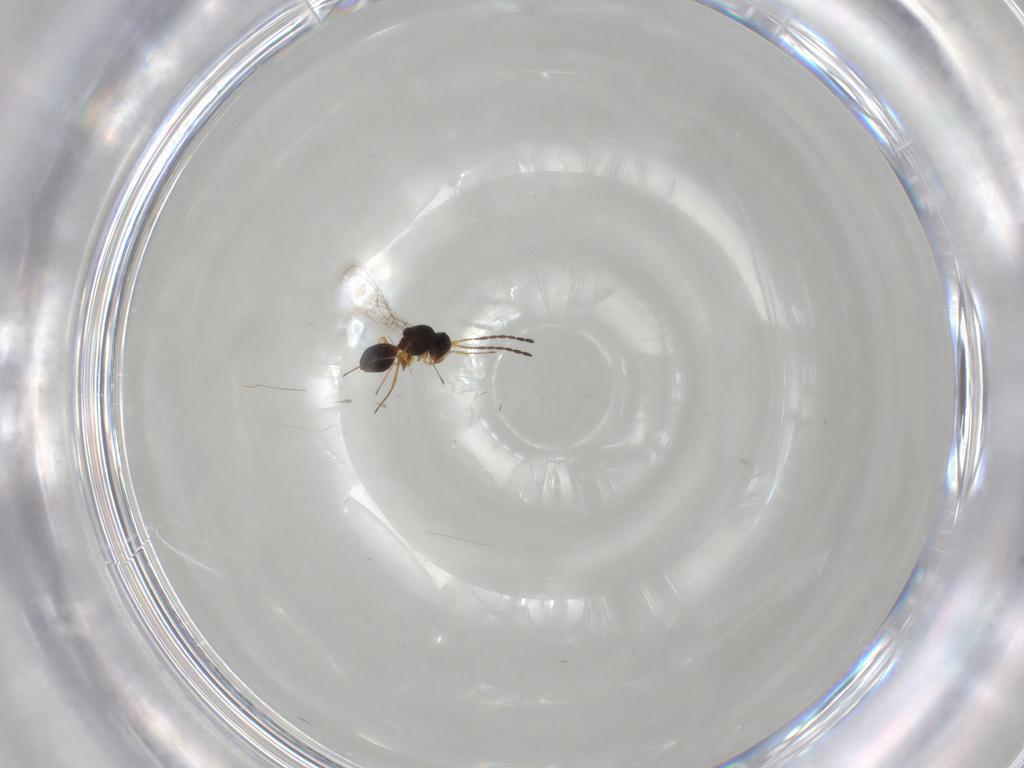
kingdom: Animalia
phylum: Arthropoda
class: Insecta
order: Hymenoptera
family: Figitidae
